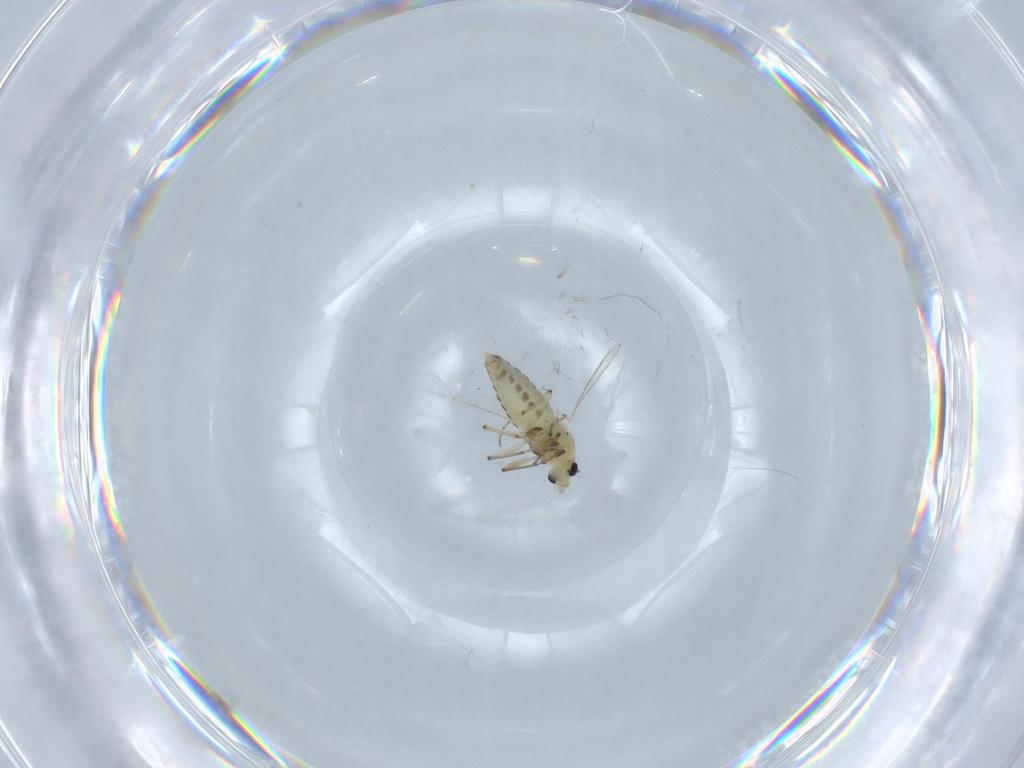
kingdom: Animalia
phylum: Arthropoda
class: Insecta
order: Diptera
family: Chironomidae
